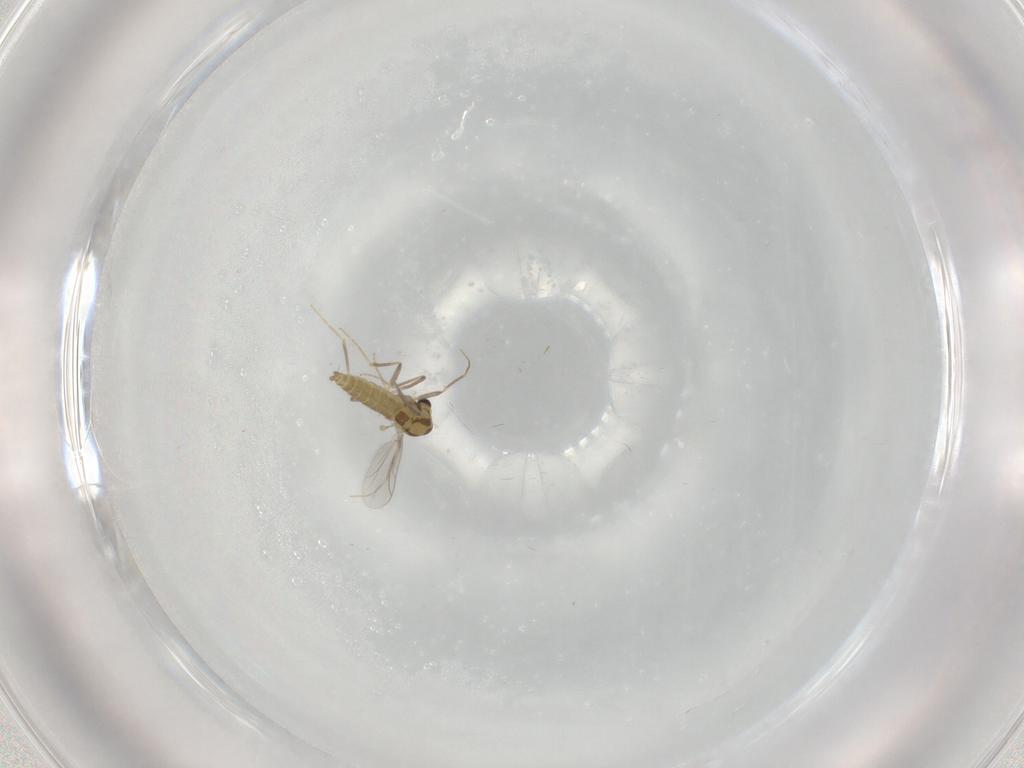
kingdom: Animalia
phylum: Arthropoda
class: Insecta
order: Diptera
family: Chironomidae
